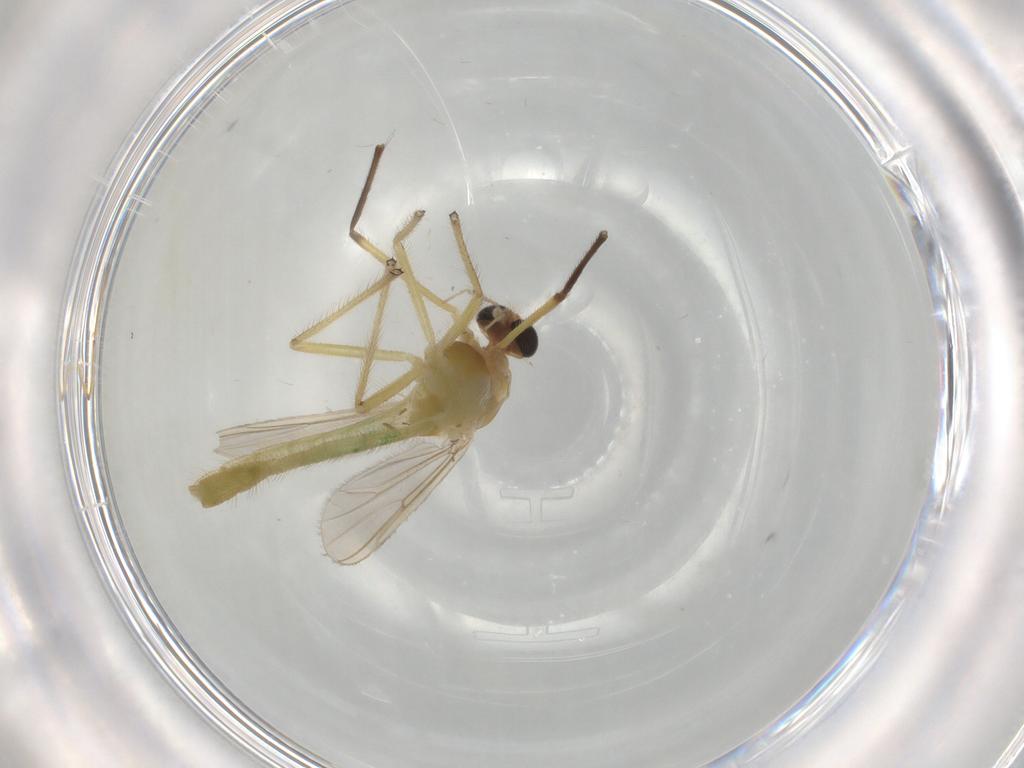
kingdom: Animalia
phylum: Arthropoda
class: Insecta
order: Diptera
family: Chironomidae
